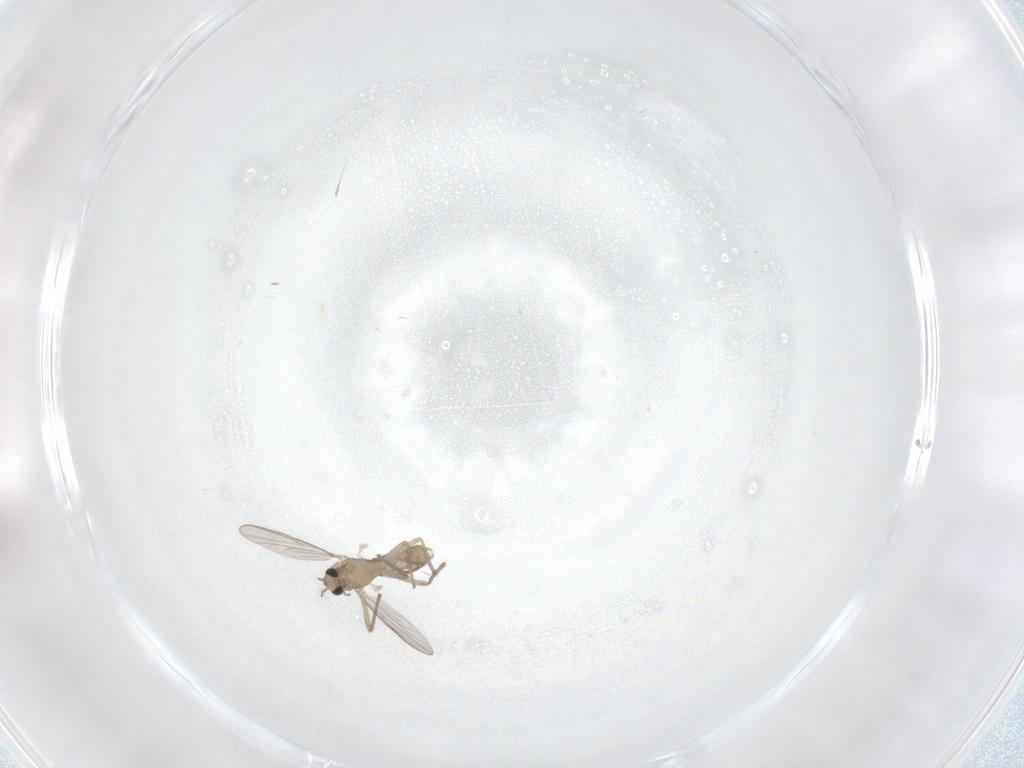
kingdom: Animalia
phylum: Arthropoda
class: Insecta
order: Diptera
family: Chironomidae
